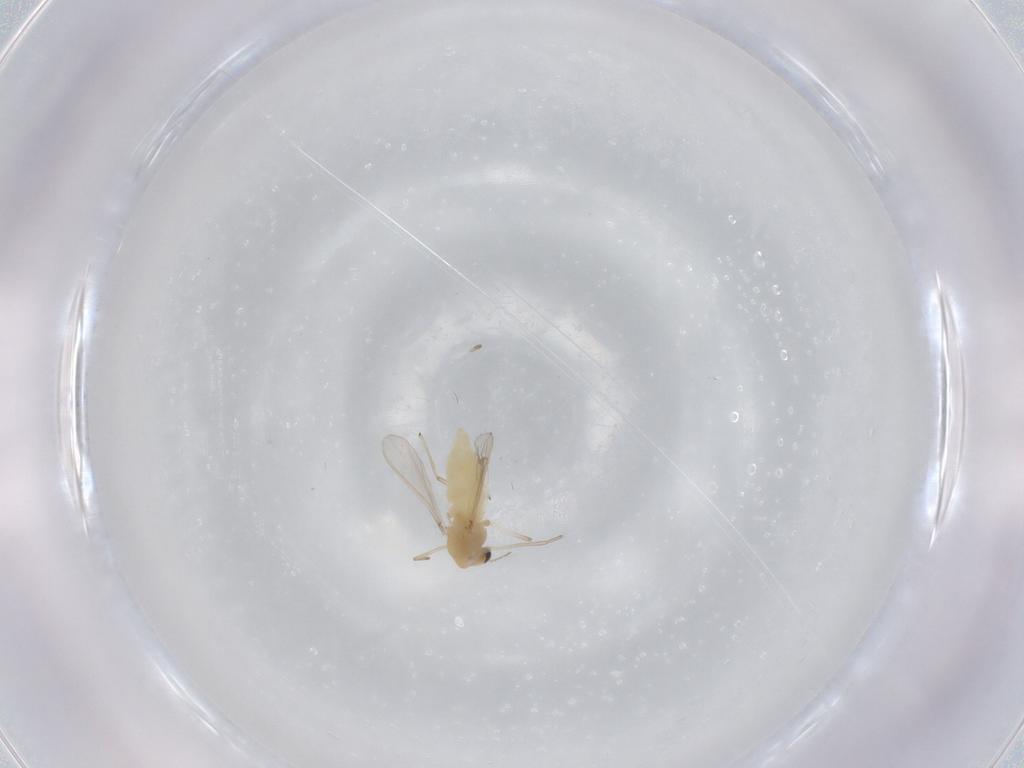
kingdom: Animalia
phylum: Arthropoda
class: Insecta
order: Diptera
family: Chironomidae
